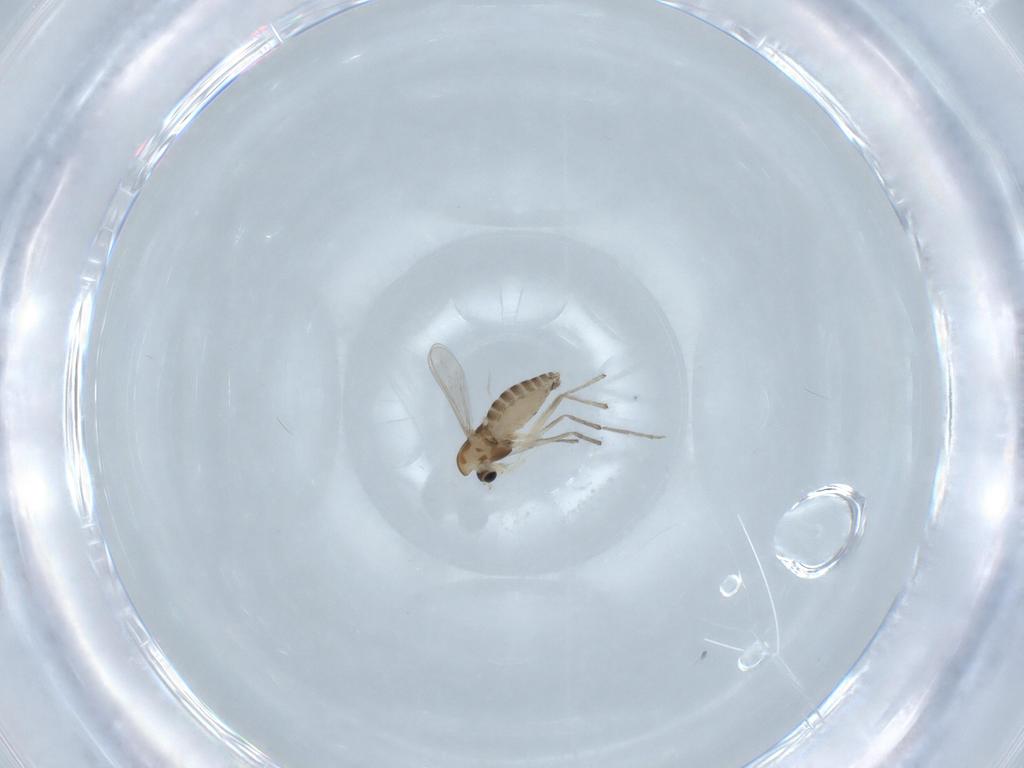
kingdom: Animalia
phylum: Arthropoda
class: Insecta
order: Diptera
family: Chironomidae
